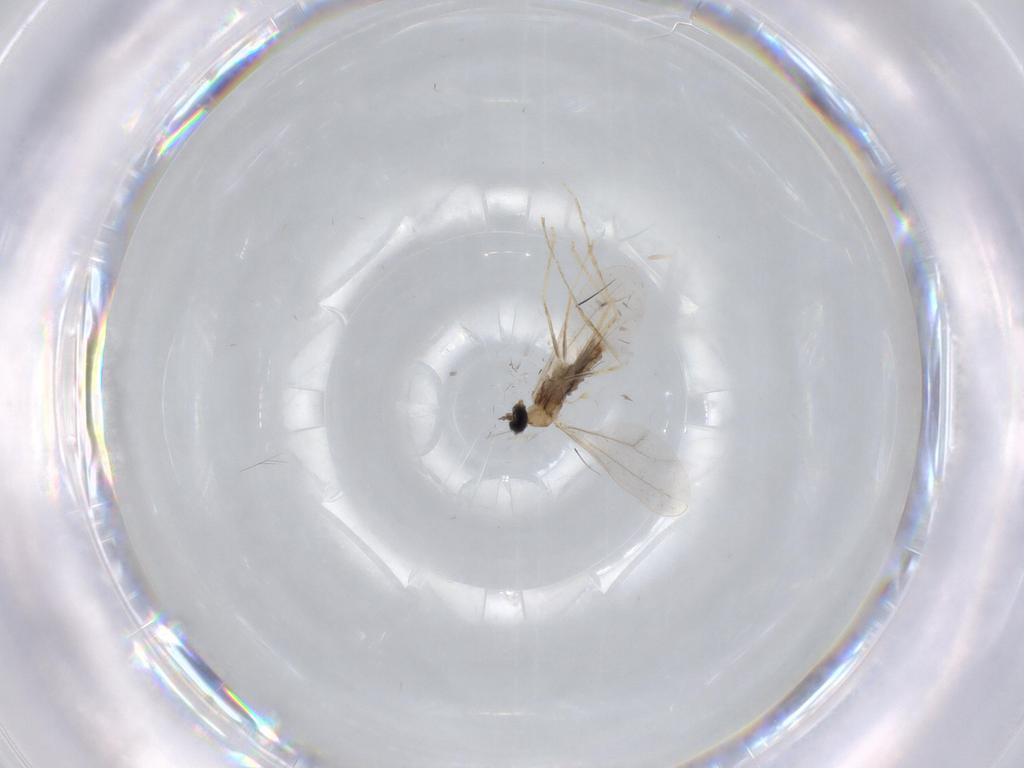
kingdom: Animalia
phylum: Arthropoda
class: Insecta
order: Diptera
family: Cecidomyiidae
